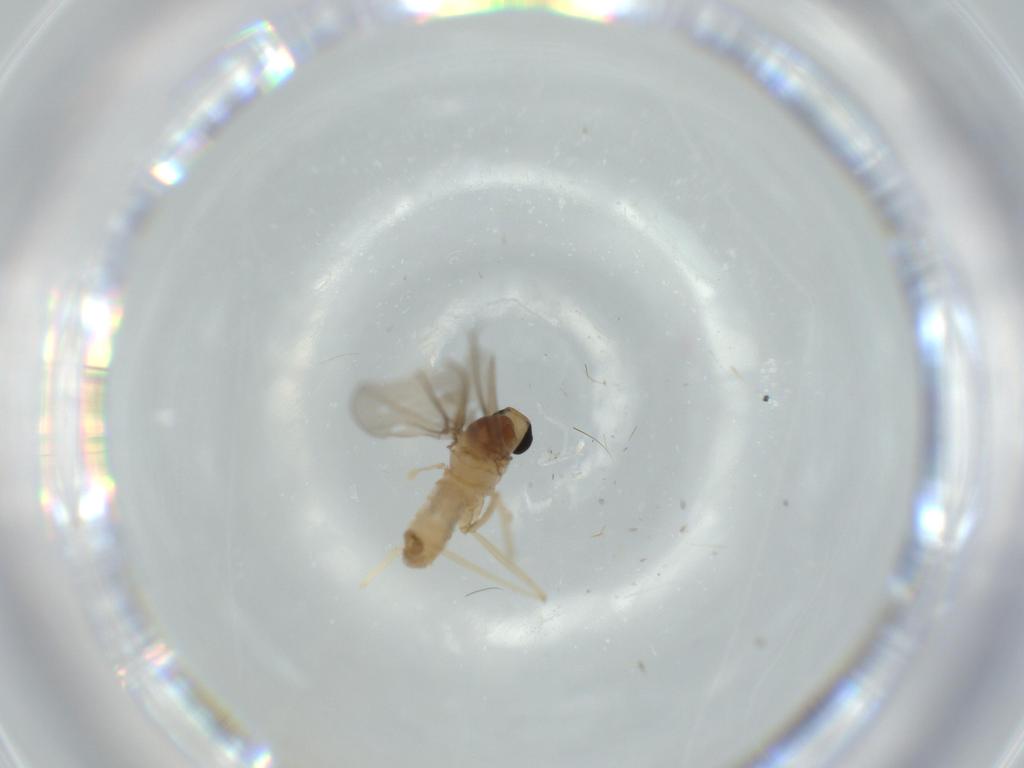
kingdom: Animalia
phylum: Arthropoda
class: Insecta
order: Diptera
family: Cecidomyiidae
